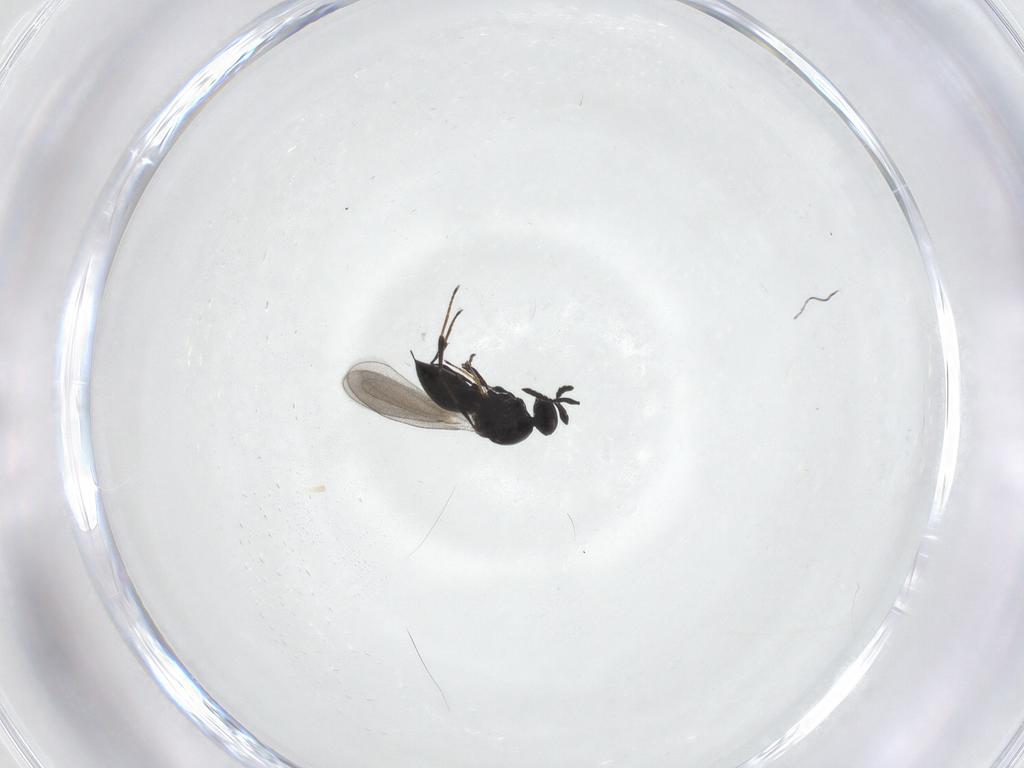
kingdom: Animalia
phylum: Arthropoda
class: Insecta
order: Hymenoptera
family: Platygastridae
